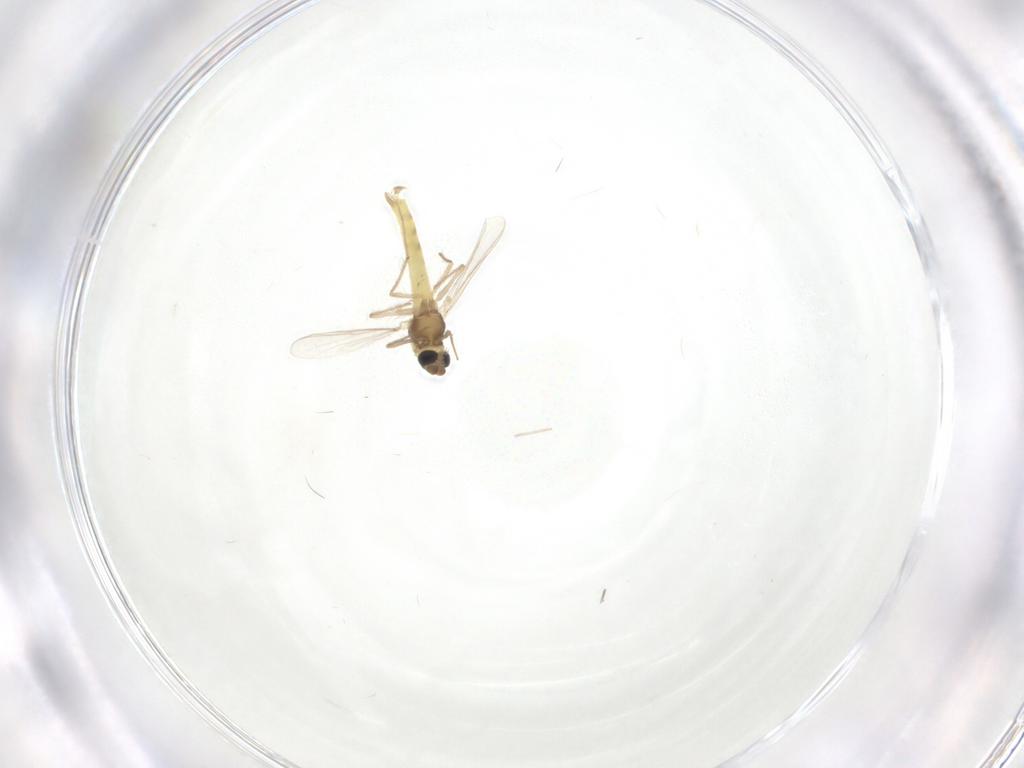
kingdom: Animalia
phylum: Arthropoda
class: Insecta
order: Diptera
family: Chironomidae
